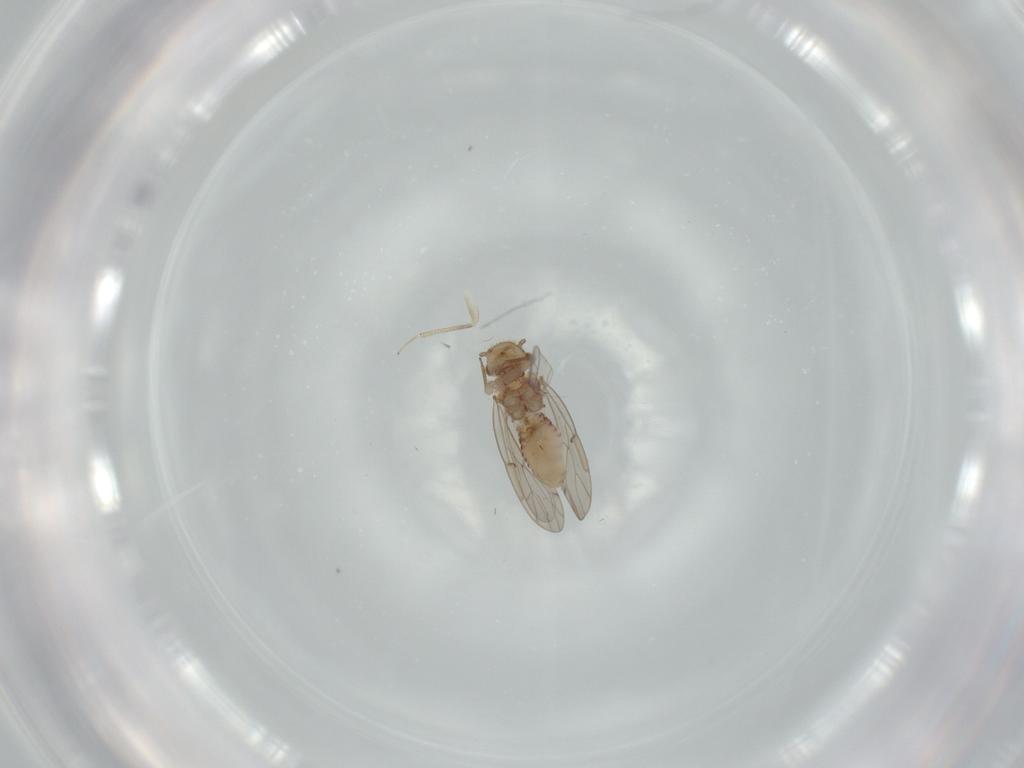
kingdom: Animalia
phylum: Arthropoda
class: Insecta
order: Psocodea
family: Ectopsocidae
